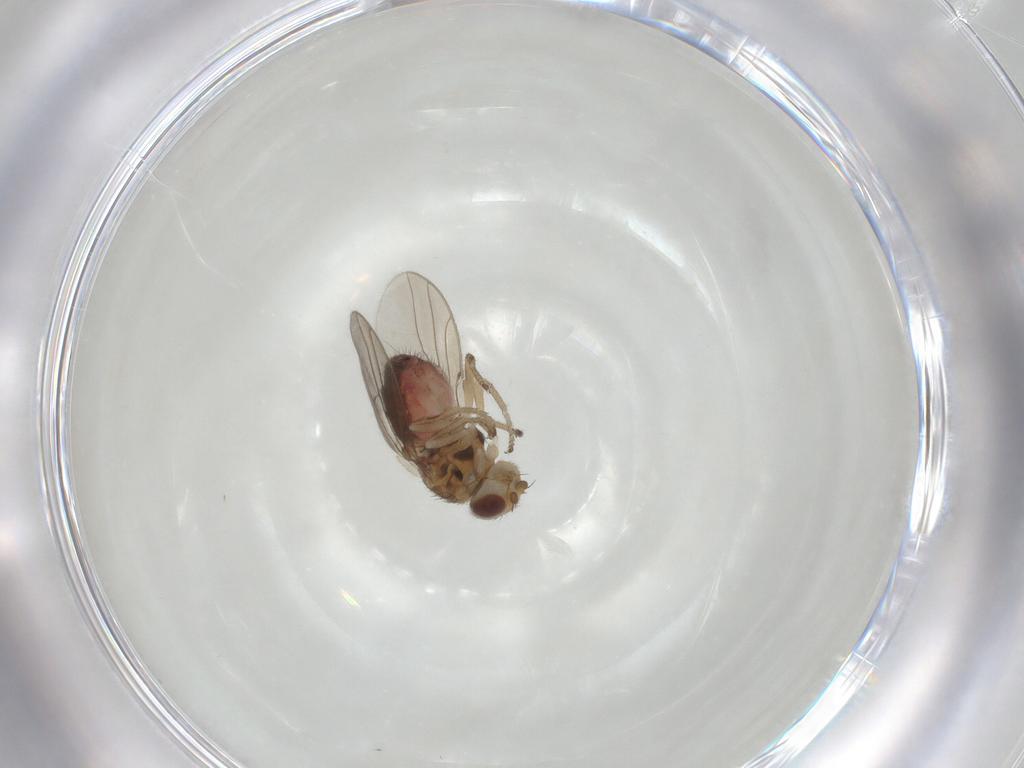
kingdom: Animalia
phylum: Arthropoda
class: Insecta
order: Diptera
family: Chloropidae
